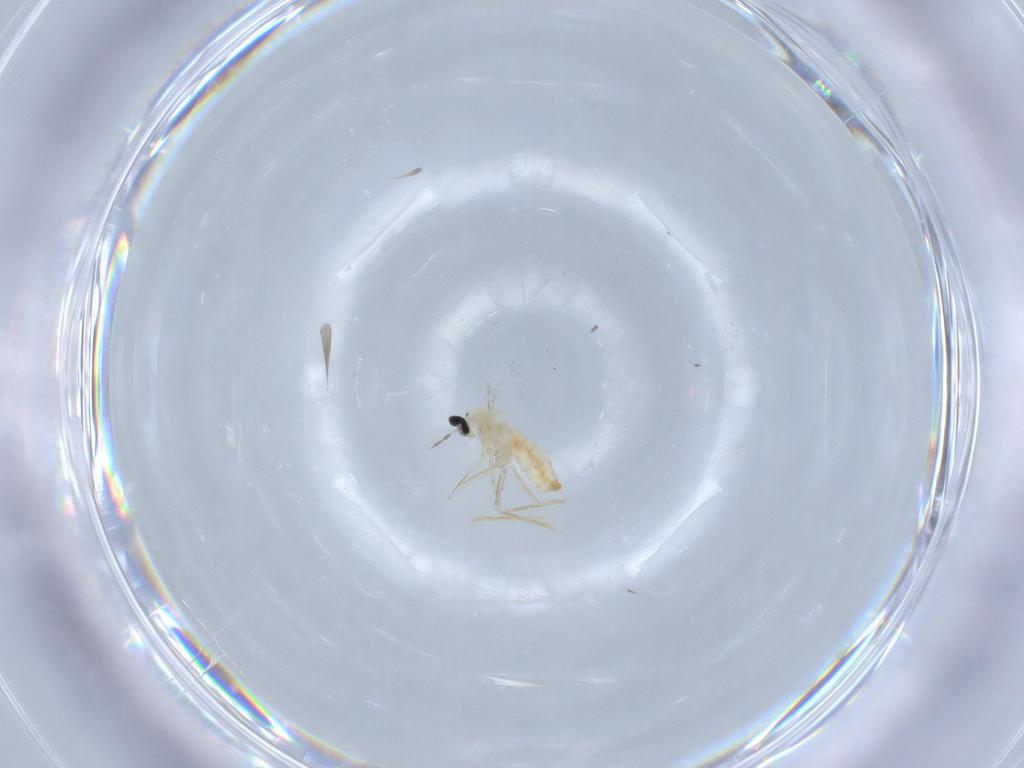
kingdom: Animalia
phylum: Arthropoda
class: Insecta
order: Diptera
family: Cecidomyiidae
